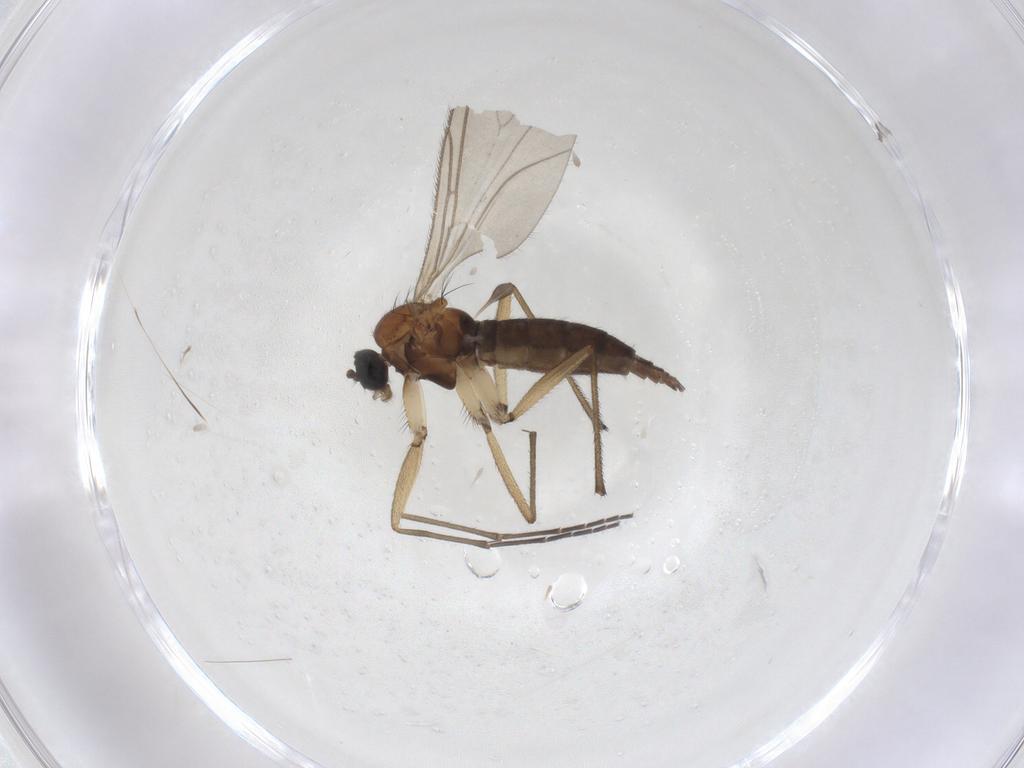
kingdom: Animalia
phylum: Arthropoda
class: Insecta
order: Diptera
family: Sciaridae
